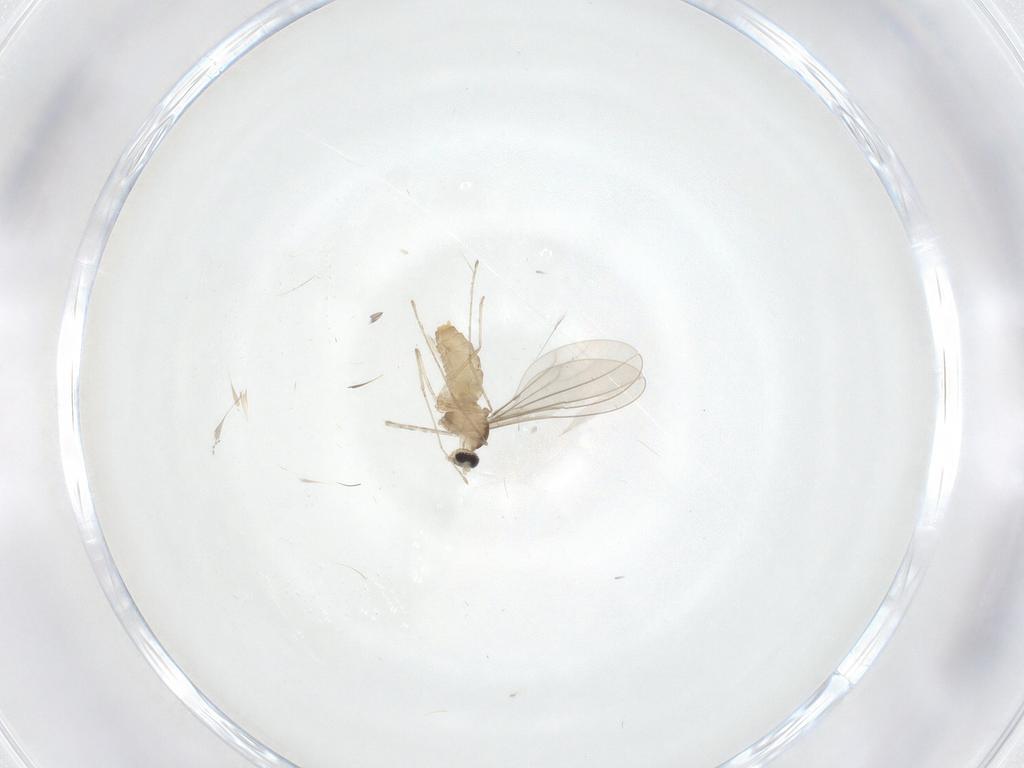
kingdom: Animalia
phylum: Arthropoda
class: Insecta
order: Diptera
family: Chironomidae
